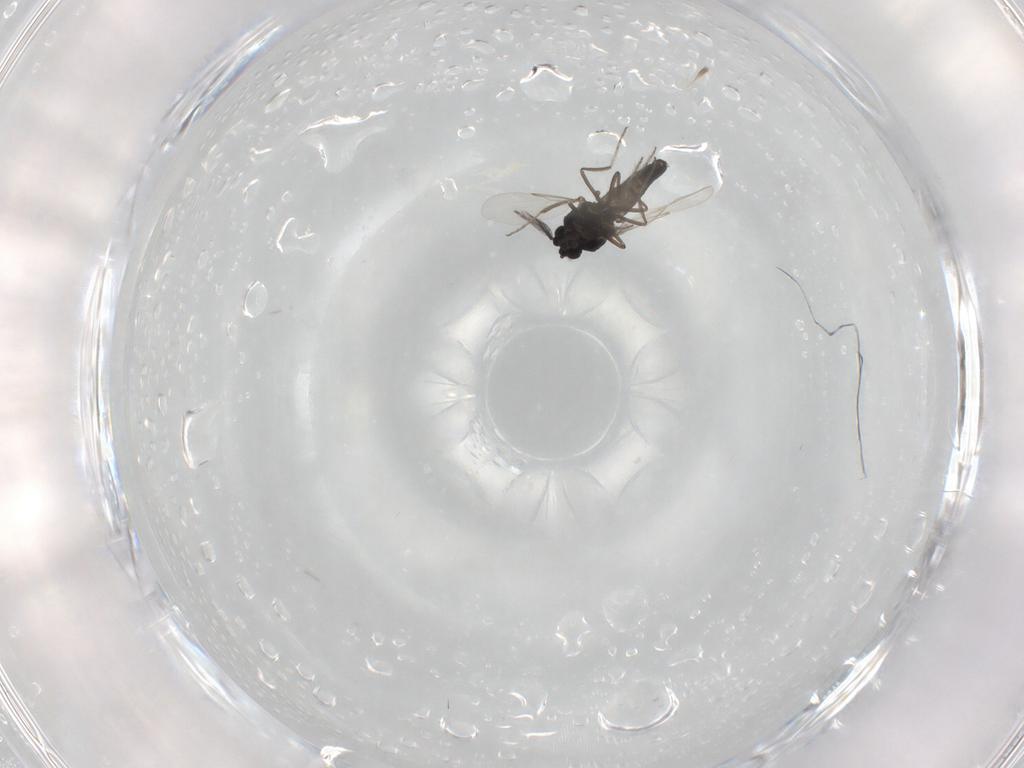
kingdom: Animalia
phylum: Arthropoda
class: Insecta
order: Diptera
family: Ceratopogonidae
